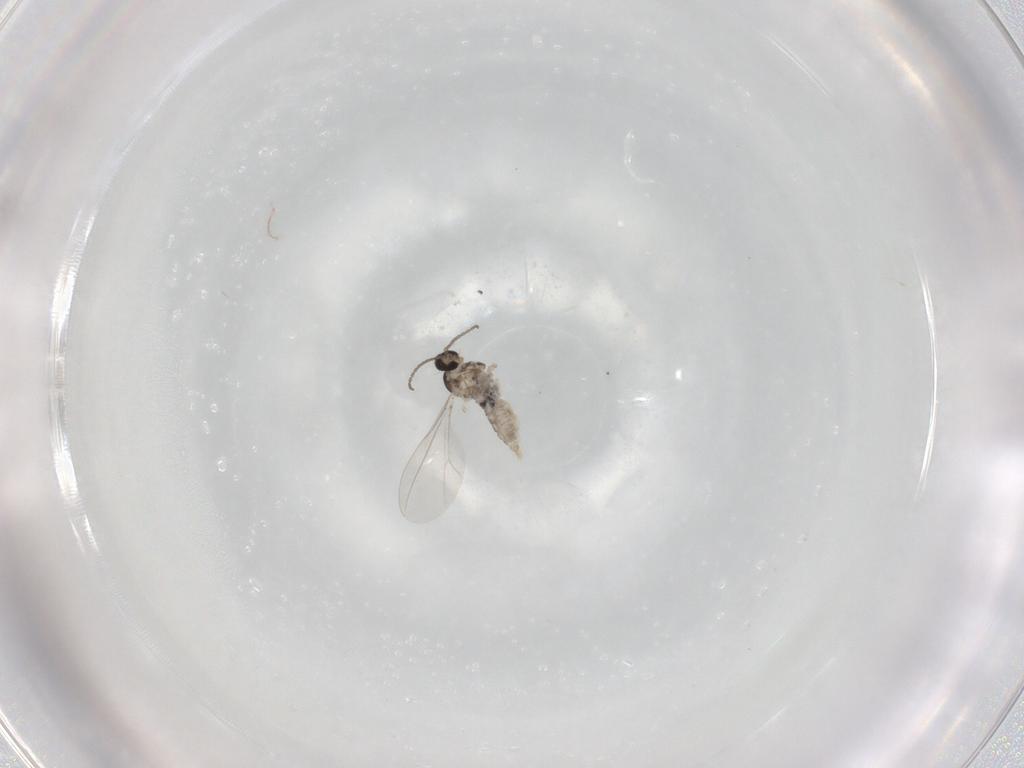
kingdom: Animalia
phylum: Arthropoda
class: Insecta
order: Diptera
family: Cecidomyiidae
